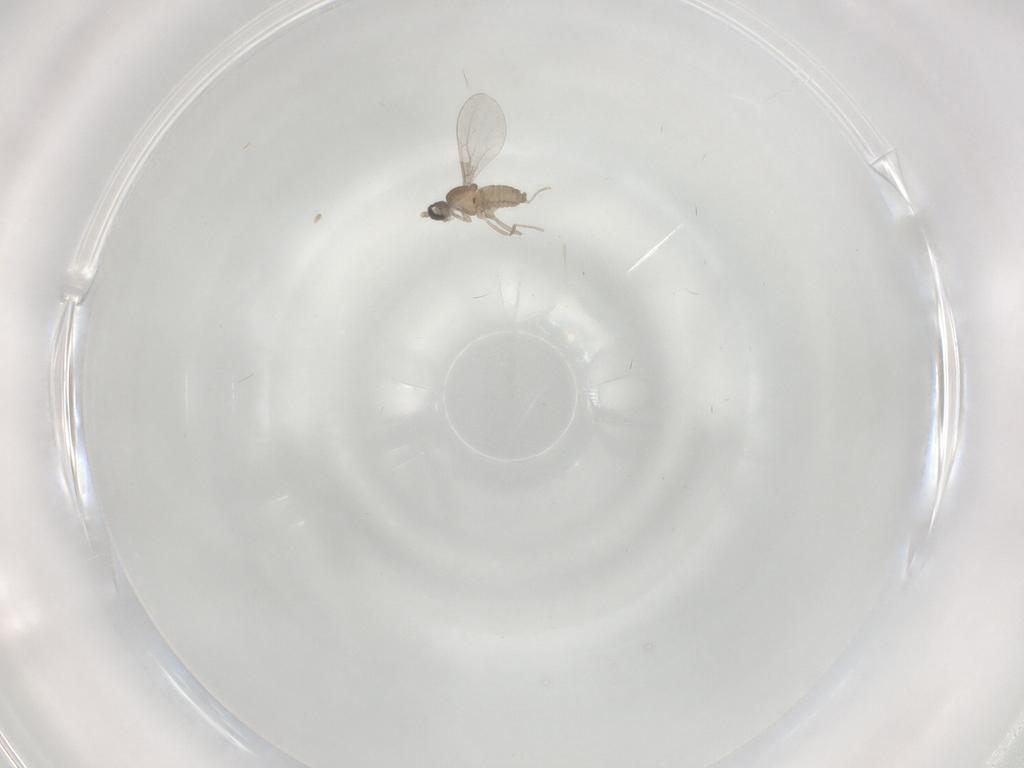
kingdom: Animalia
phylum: Arthropoda
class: Insecta
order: Diptera
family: Cecidomyiidae
